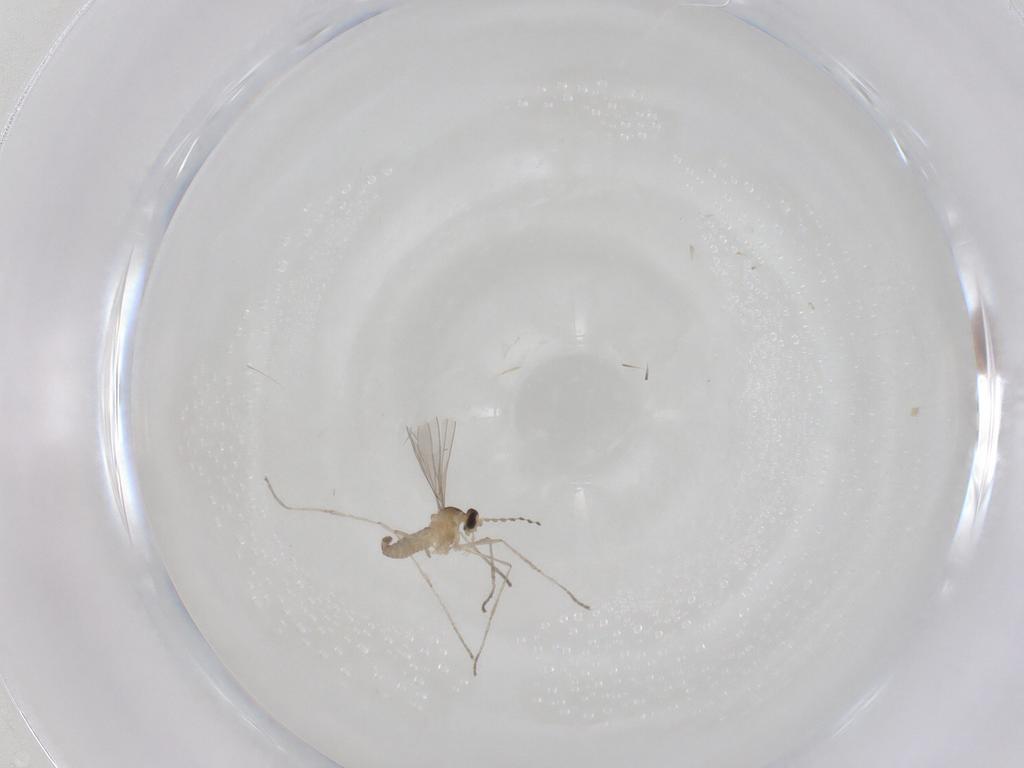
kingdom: Animalia
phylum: Arthropoda
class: Insecta
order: Diptera
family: Cecidomyiidae
